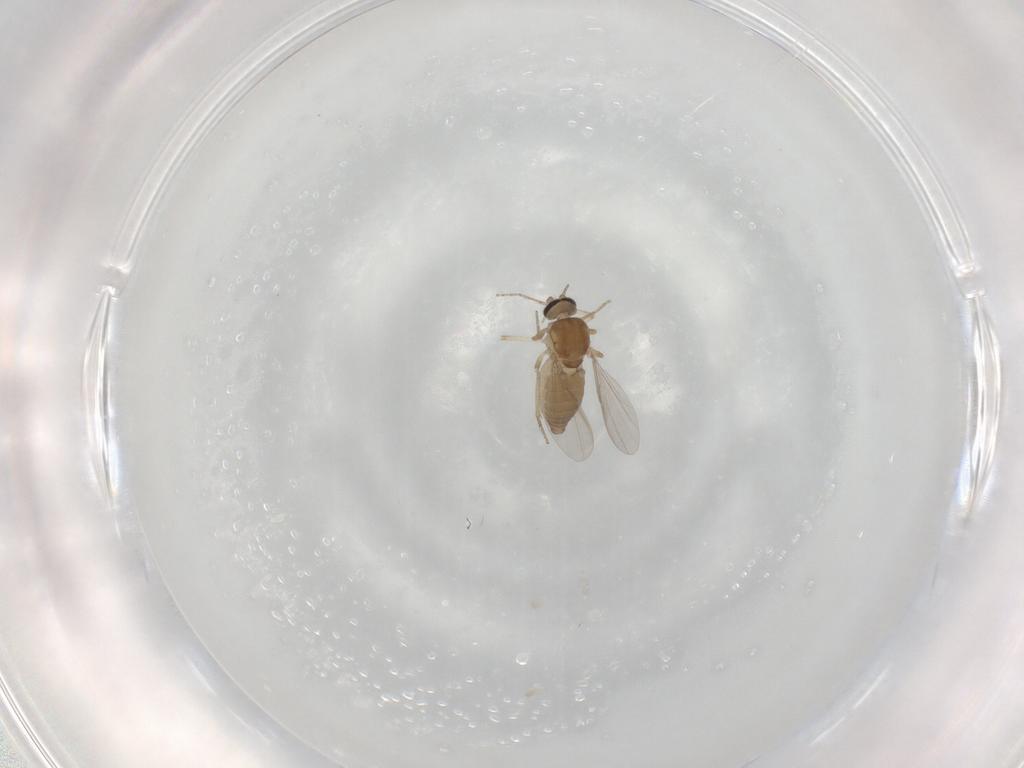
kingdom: Animalia
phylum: Arthropoda
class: Insecta
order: Diptera
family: Ceratopogonidae
